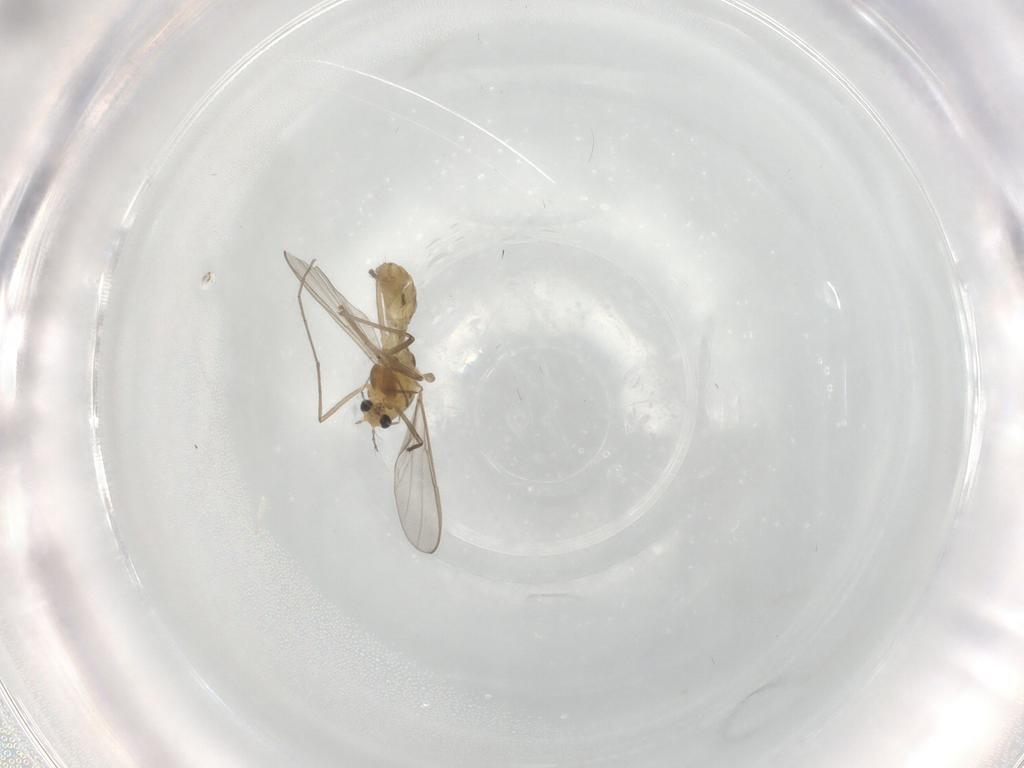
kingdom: Animalia
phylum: Arthropoda
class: Insecta
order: Diptera
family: Chironomidae
